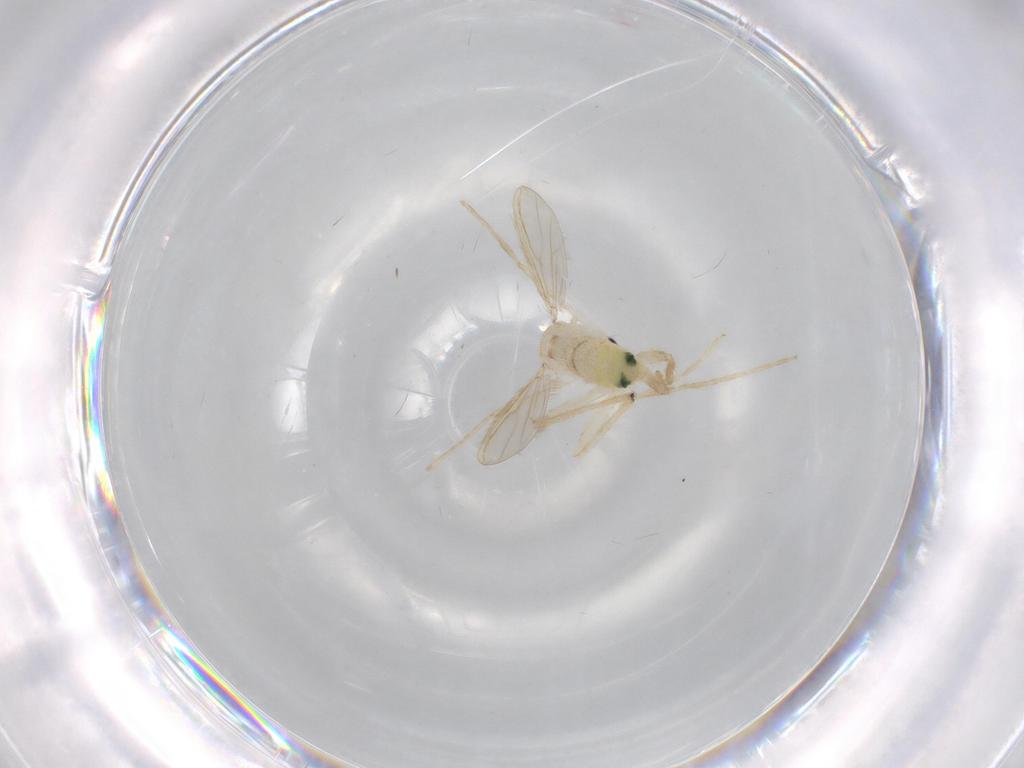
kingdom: Animalia
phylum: Arthropoda
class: Insecta
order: Diptera
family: Chironomidae
